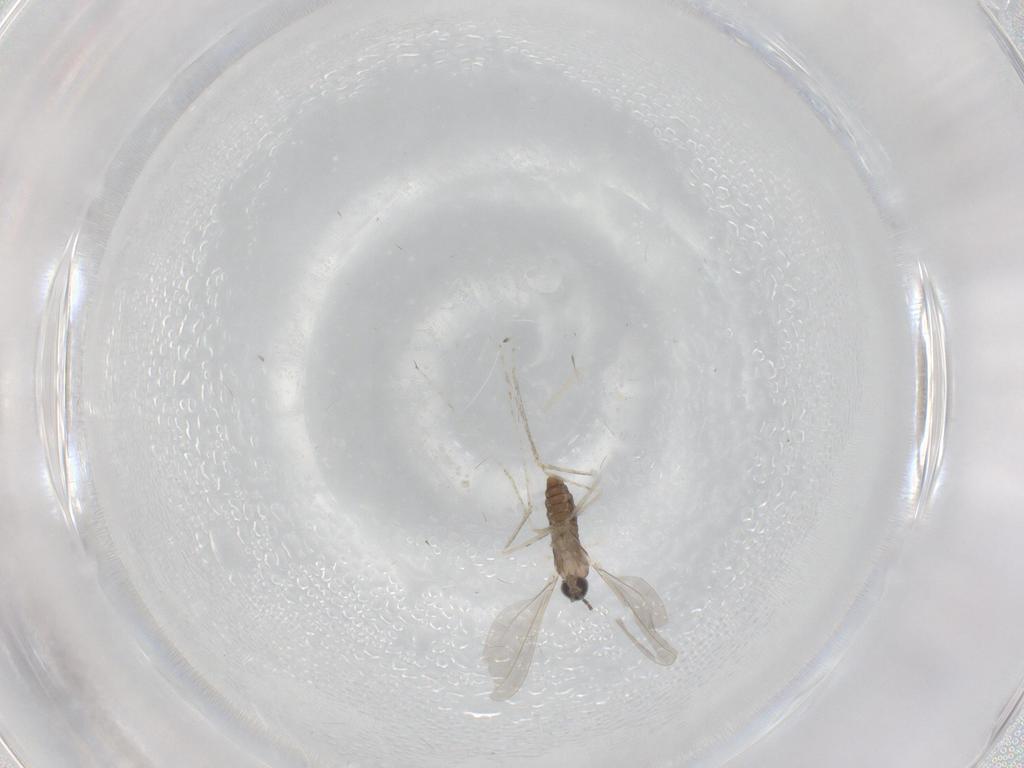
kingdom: Animalia
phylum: Arthropoda
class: Insecta
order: Diptera
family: Cecidomyiidae
